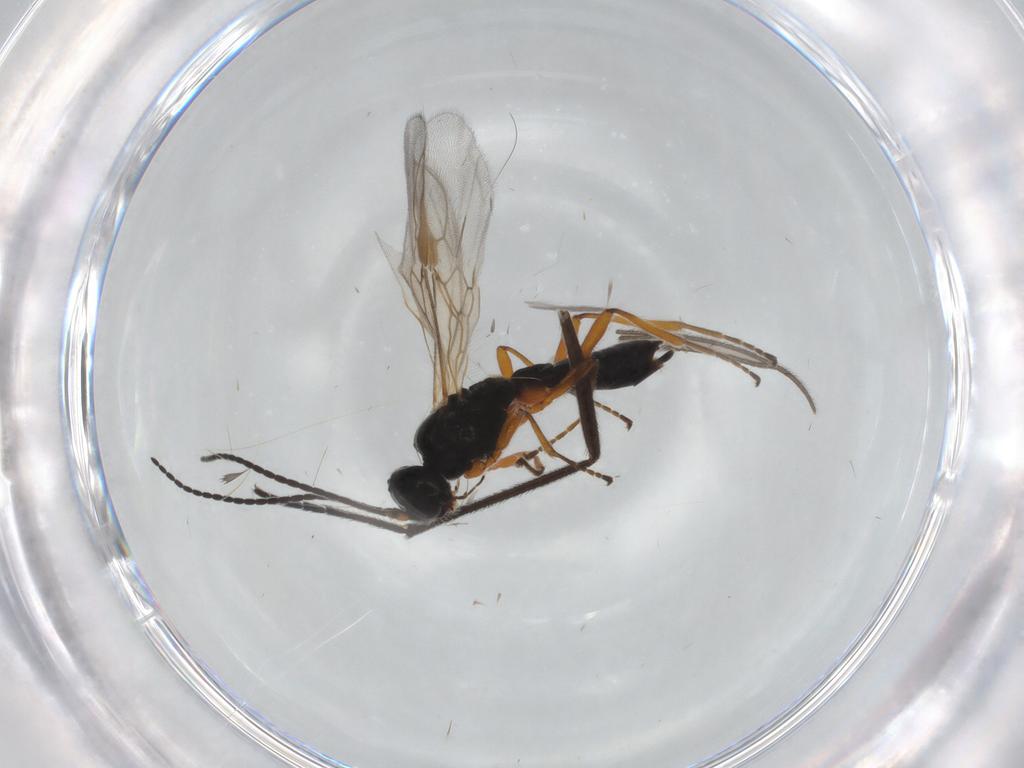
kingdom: Animalia
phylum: Arthropoda
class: Insecta
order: Hymenoptera
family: Braconidae
